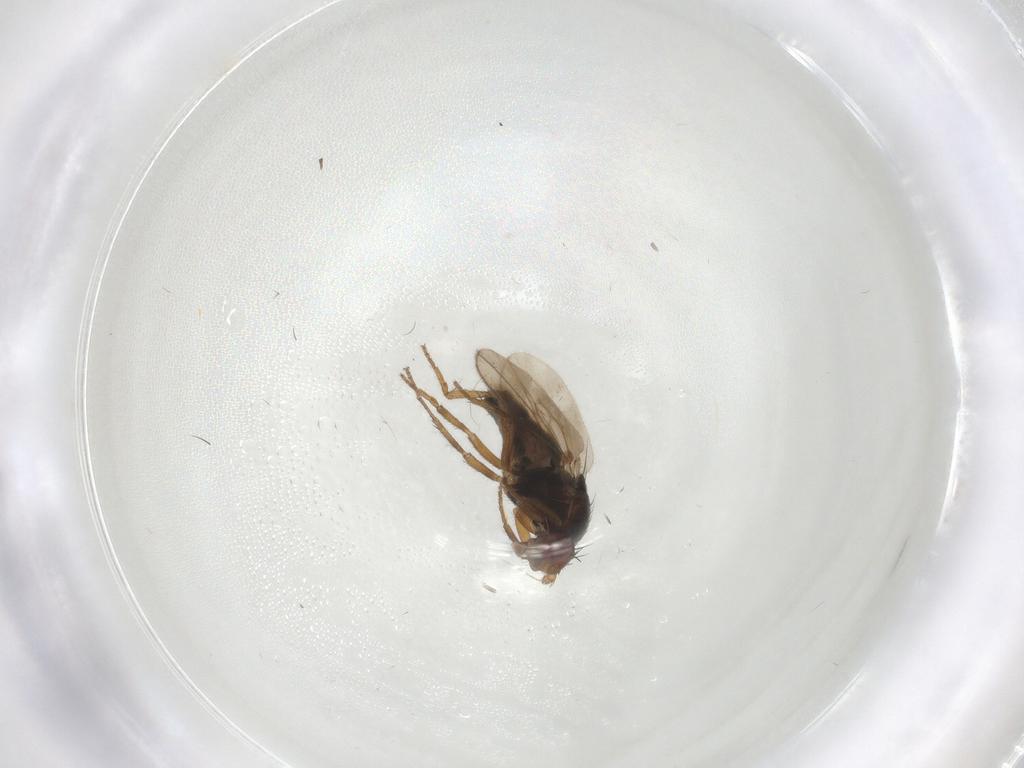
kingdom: Animalia
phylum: Arthropoda
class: Insecta
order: Diptera
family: Sphaeroceridae
